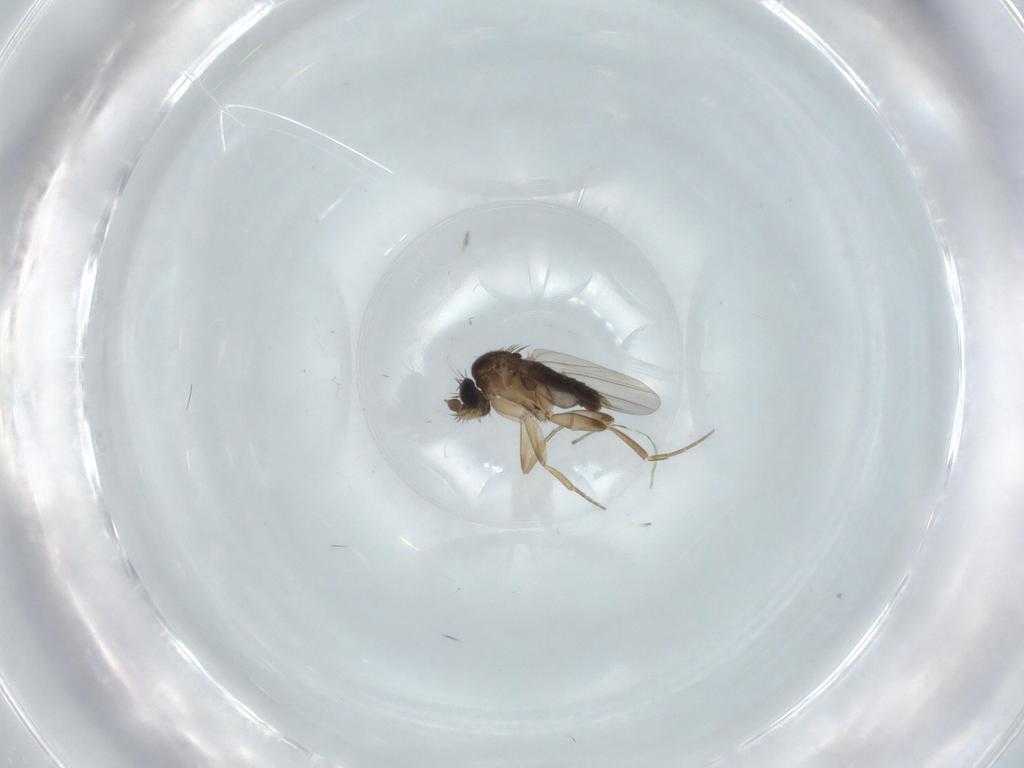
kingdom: Animalia
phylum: Arthropoda
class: Insecta
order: Diptera
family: Phoridae
